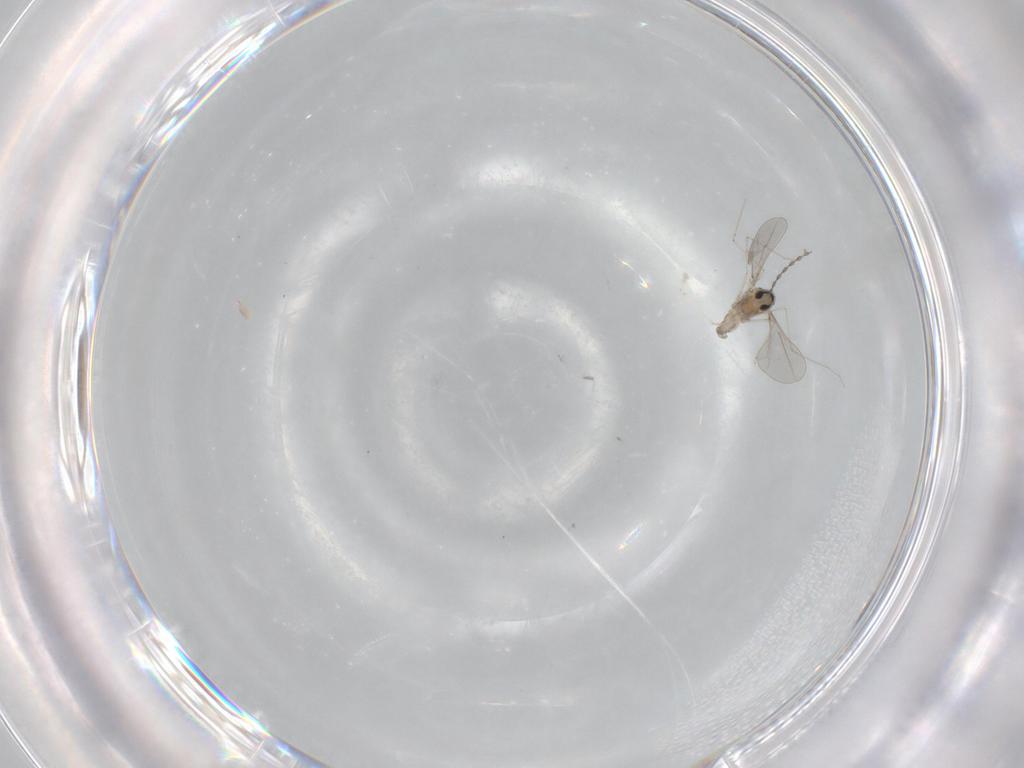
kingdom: Animalia
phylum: Arthropoda
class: Insecta
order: Diptera
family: Cecidomyiidae
